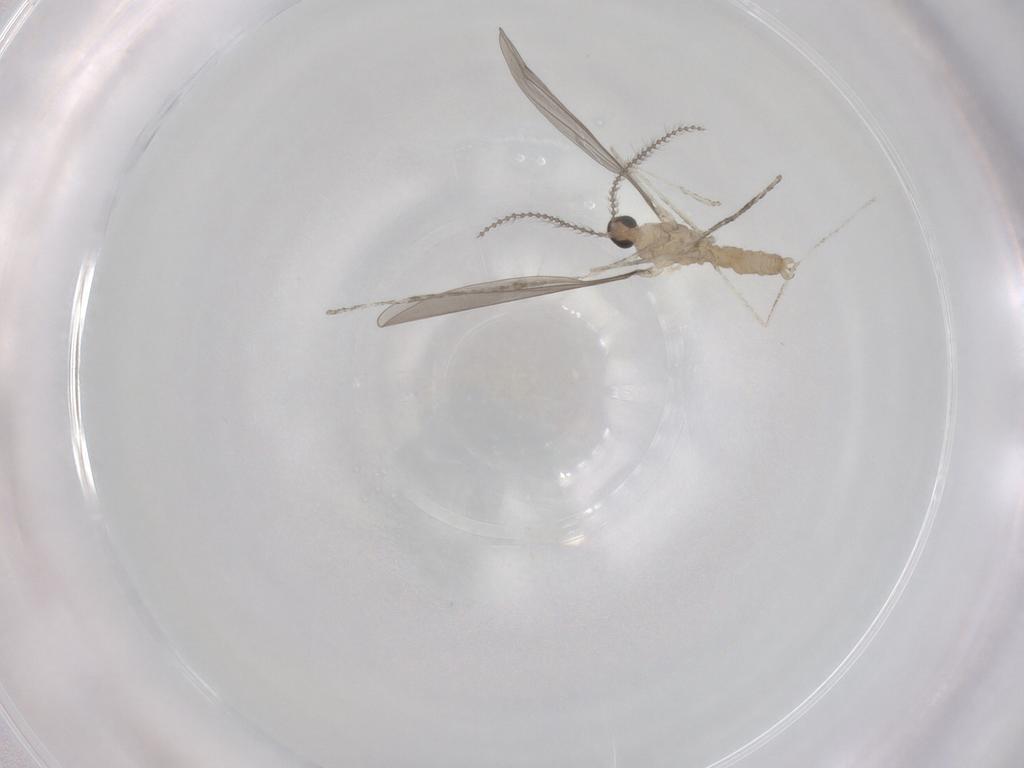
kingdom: Animalia
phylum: Arthropoda
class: Insecta
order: Diptera
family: Cecidomyiidae
